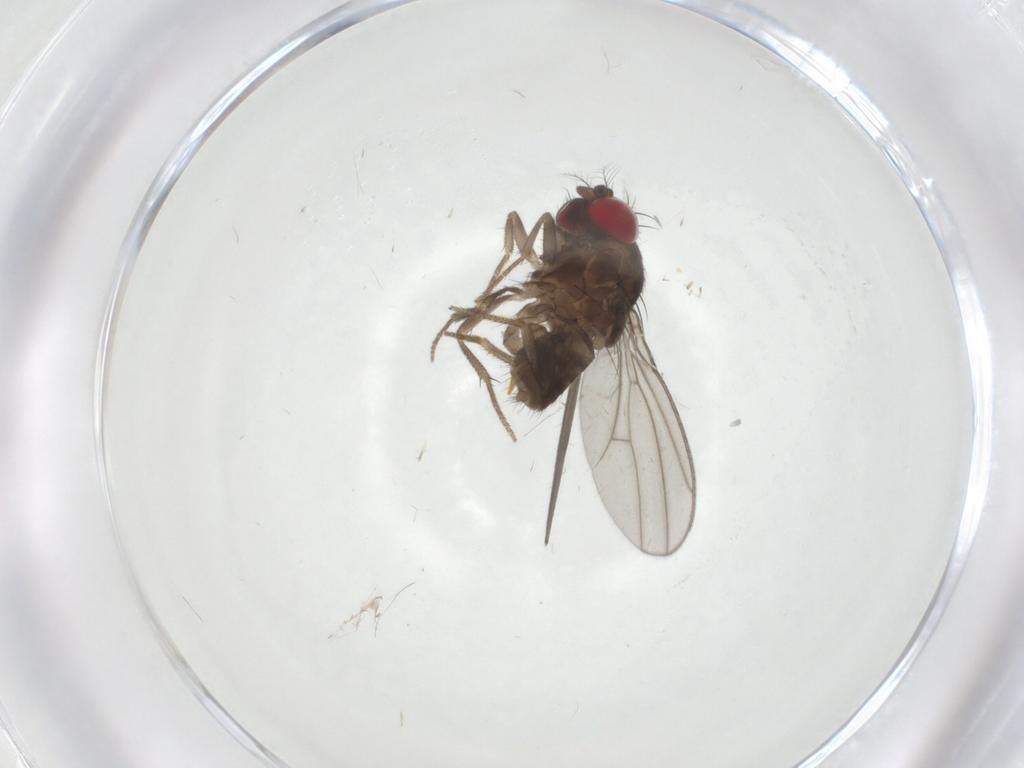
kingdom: Animalia
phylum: Arthropoda
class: Insecta
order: Diptera
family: Drosophilidae
